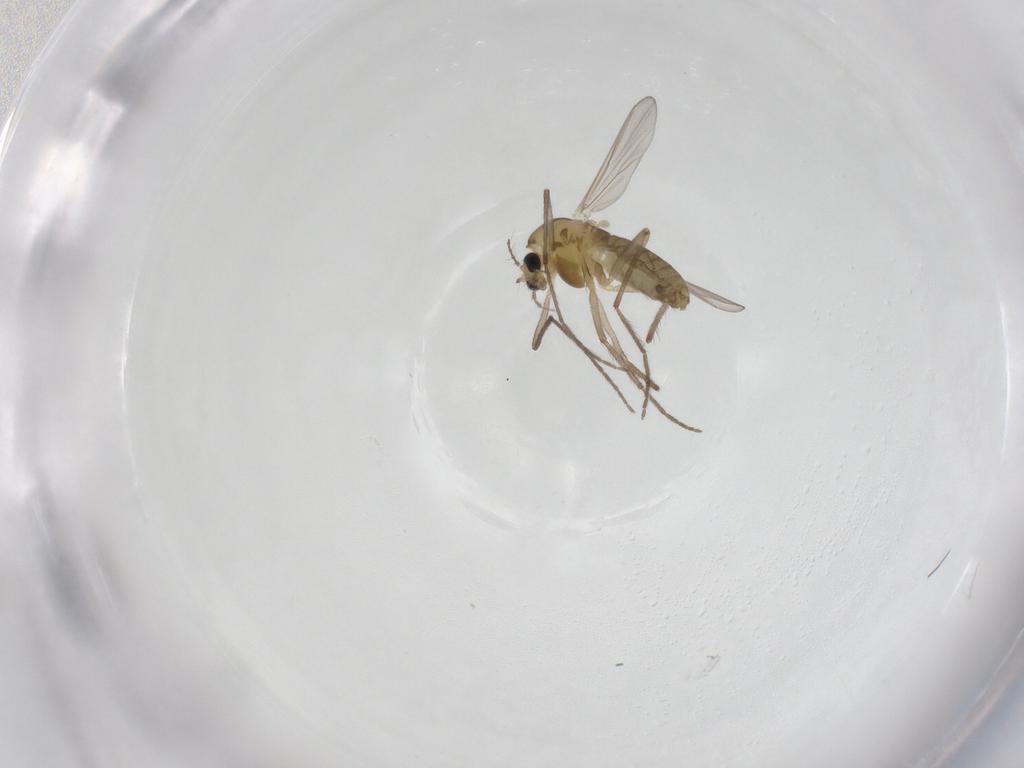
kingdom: Animalia
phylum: Arthropoda
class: Insecta
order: Diptera
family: Chironomidae
